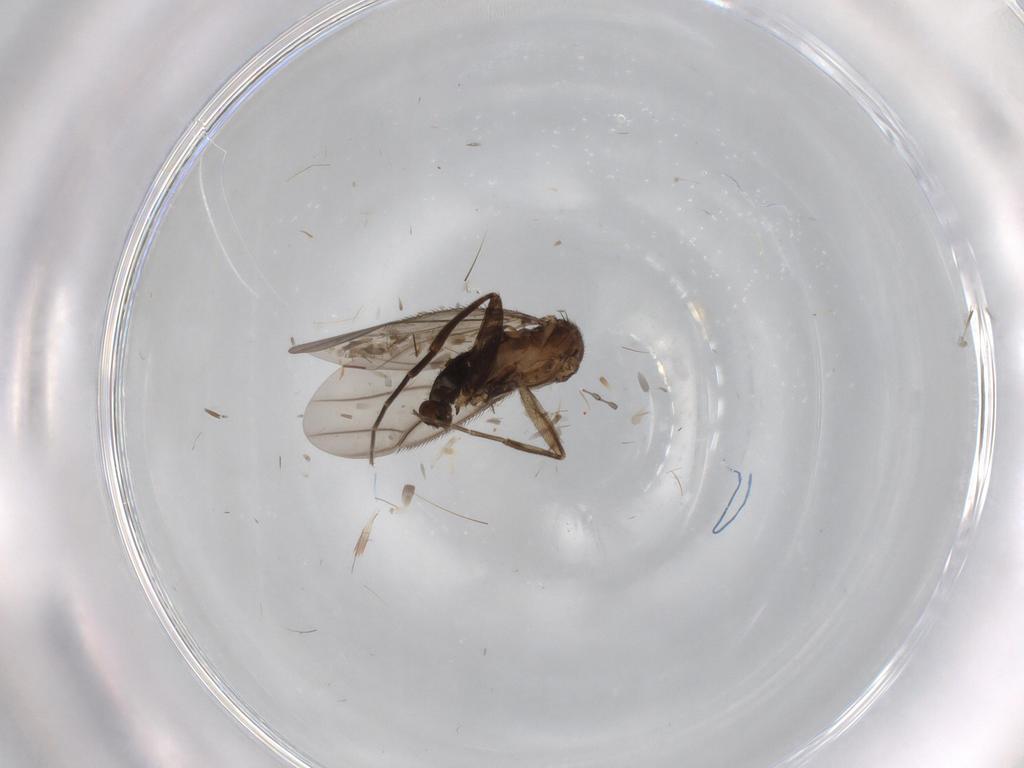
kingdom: Animalia
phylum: Arthropoda
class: Insecta
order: Diptera
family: Phoridae
